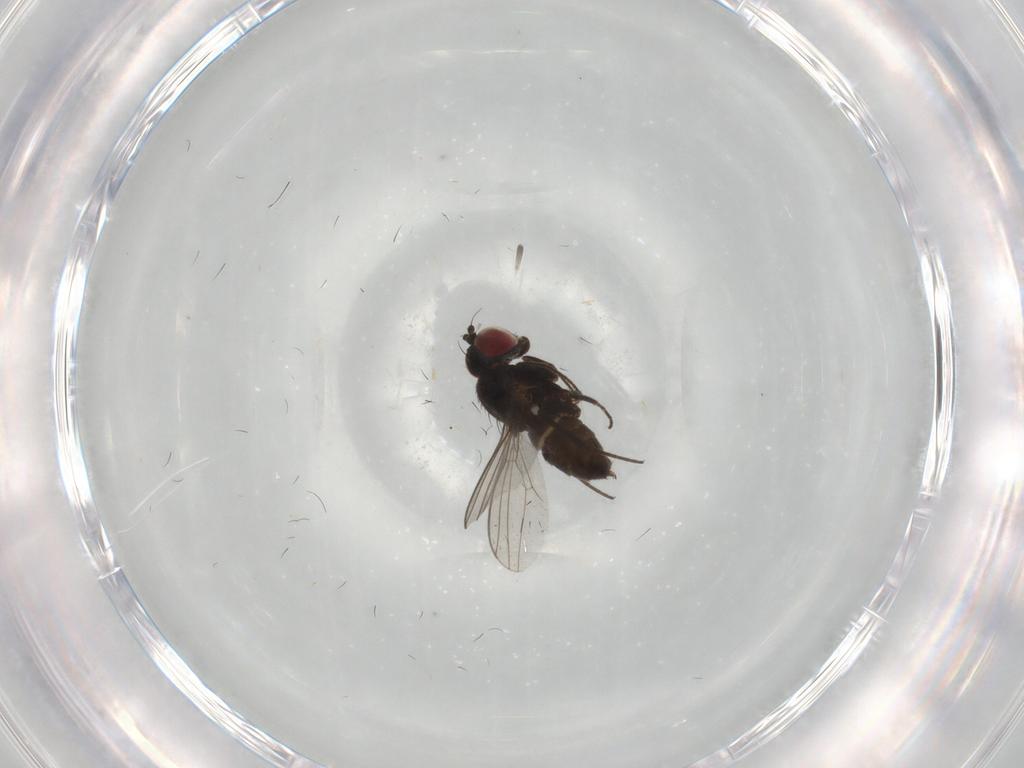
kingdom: Animalia
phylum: Arthropoda
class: Insecta
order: Diptera
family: Dolichopodidae
